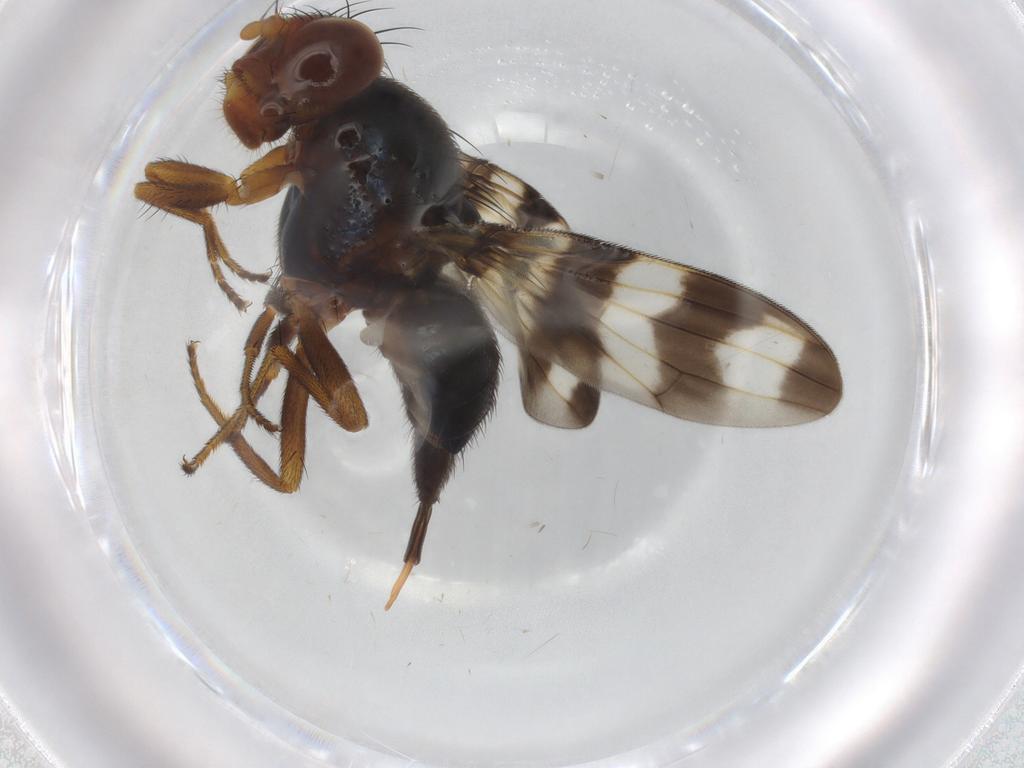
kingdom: Animalia
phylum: Arthropoda
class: Insecta
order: Diptera
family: Ulidiidae
